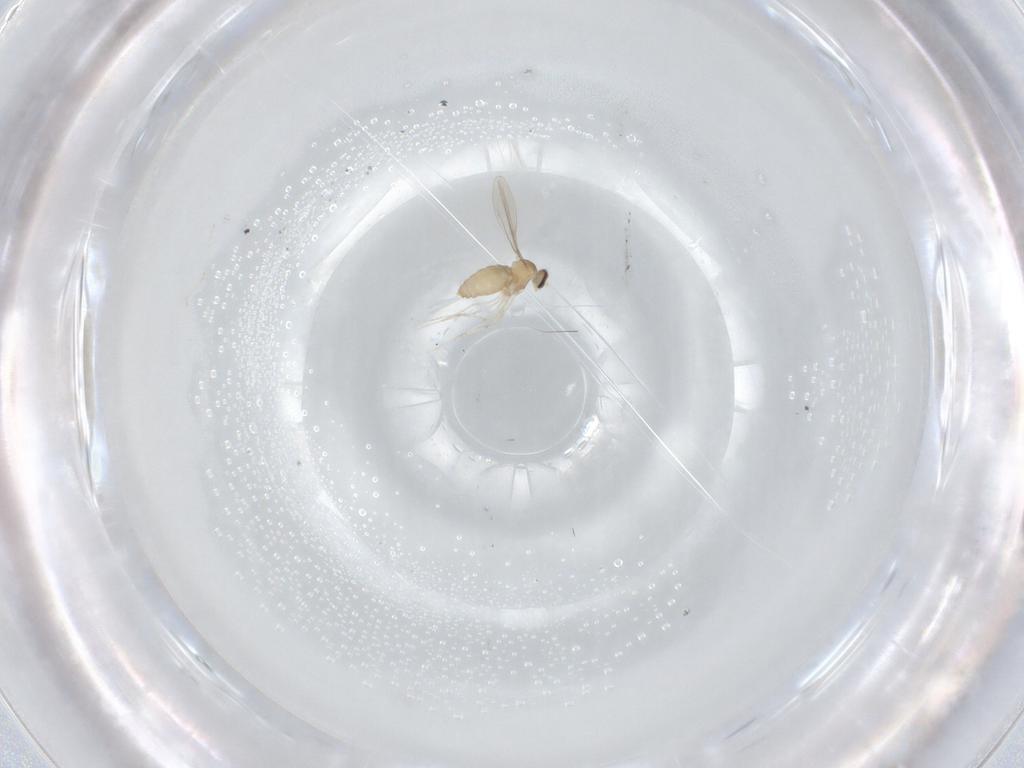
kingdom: Animalia
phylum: Arthropoda
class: Insecta
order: Diptera
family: Cecidomyiidae
